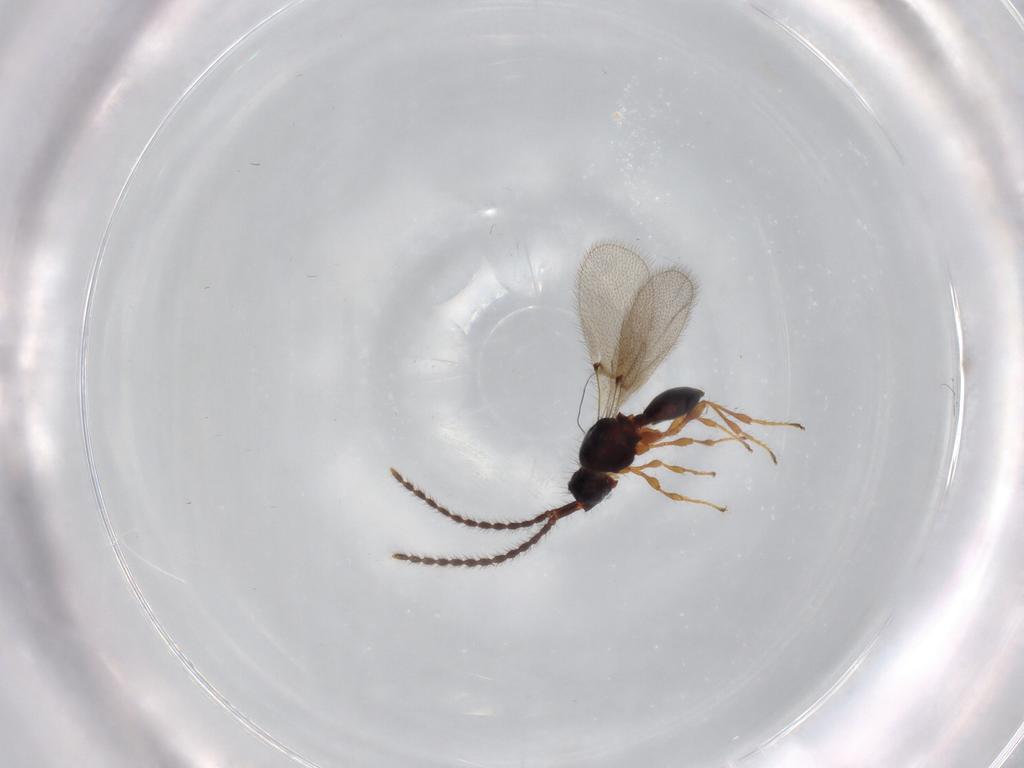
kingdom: Animalia
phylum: Arthropoda
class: Insecta
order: Hymenoptera
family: Diapriidae
